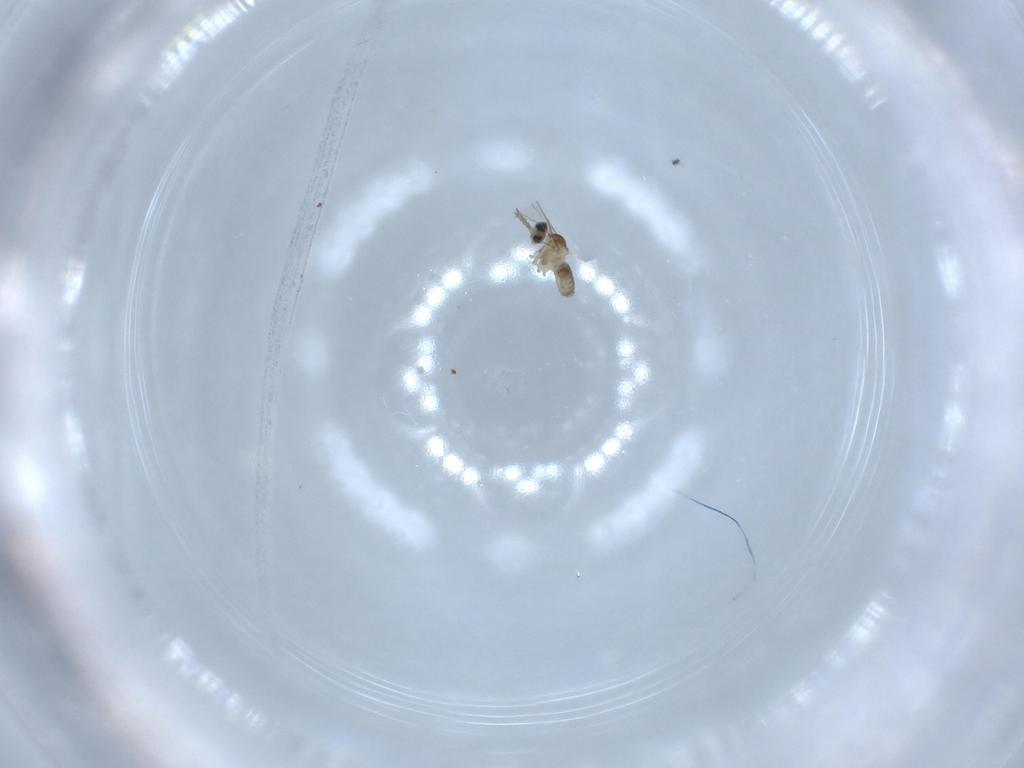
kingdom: Animalia
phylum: Arthropoda
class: Insecta
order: Diptera
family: Cecidomyiidae
